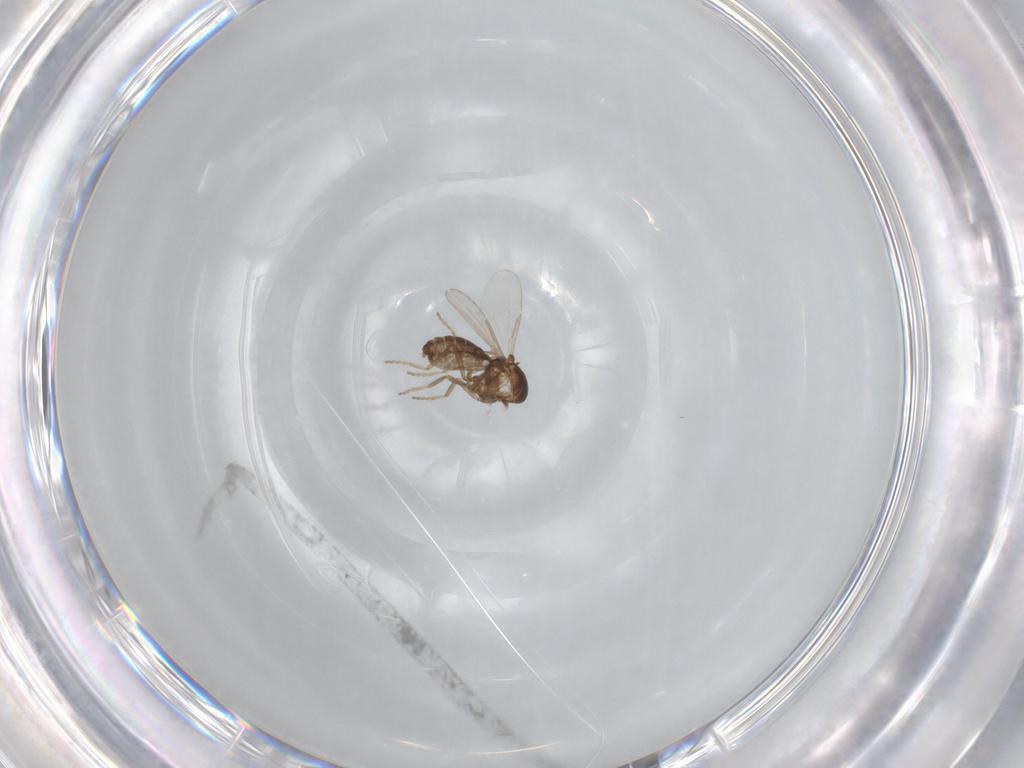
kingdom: Animalia
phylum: Arthropoda
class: Insecta
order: Diptera
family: Ceratopogonidae
